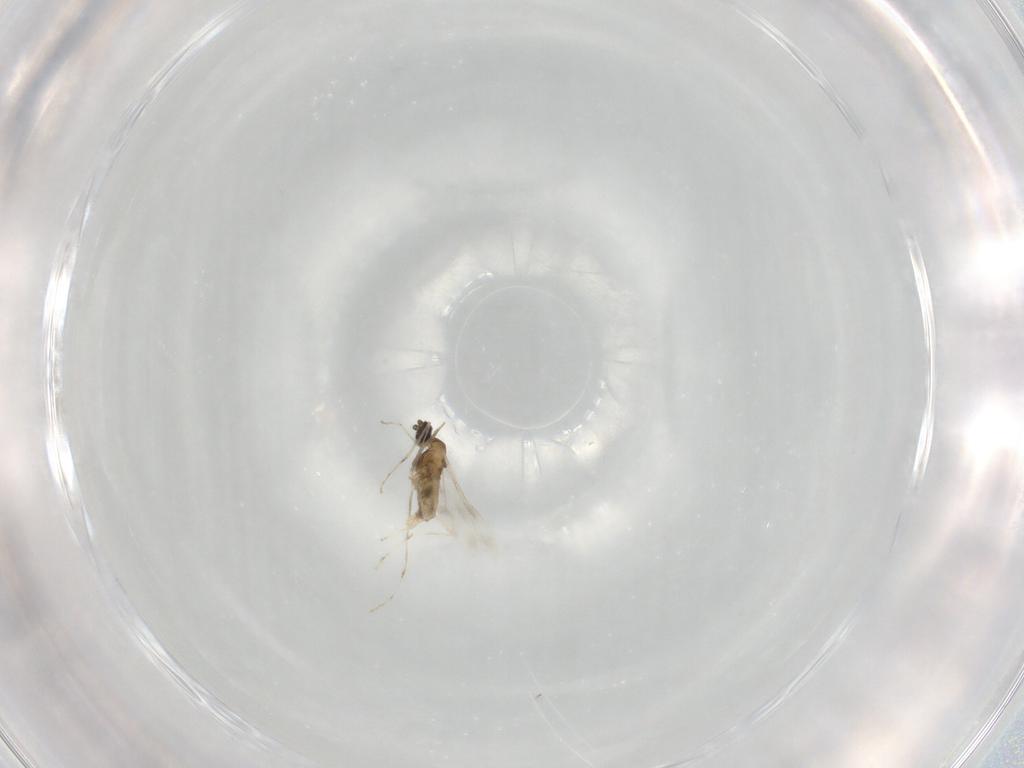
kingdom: Animalia
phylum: Arthropoda
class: Insecta
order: Diptera
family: Cecidomyiidae
